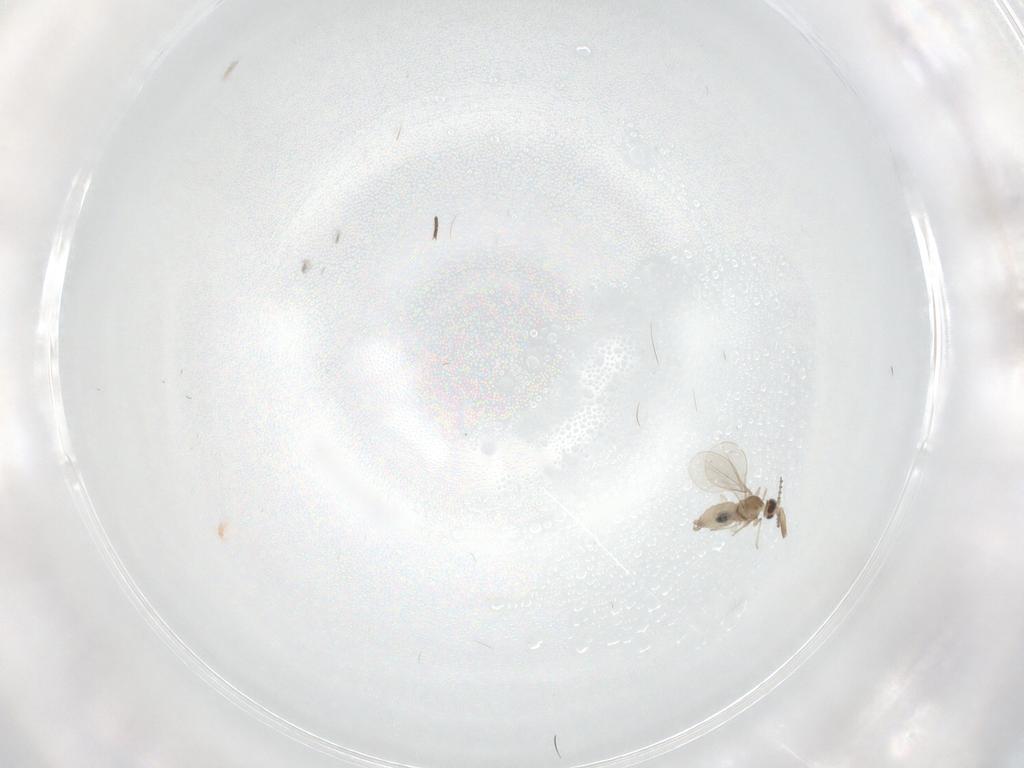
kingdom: Animalia
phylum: Arthropoda
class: Insecta
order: Diptera
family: Cecidomyiidae
